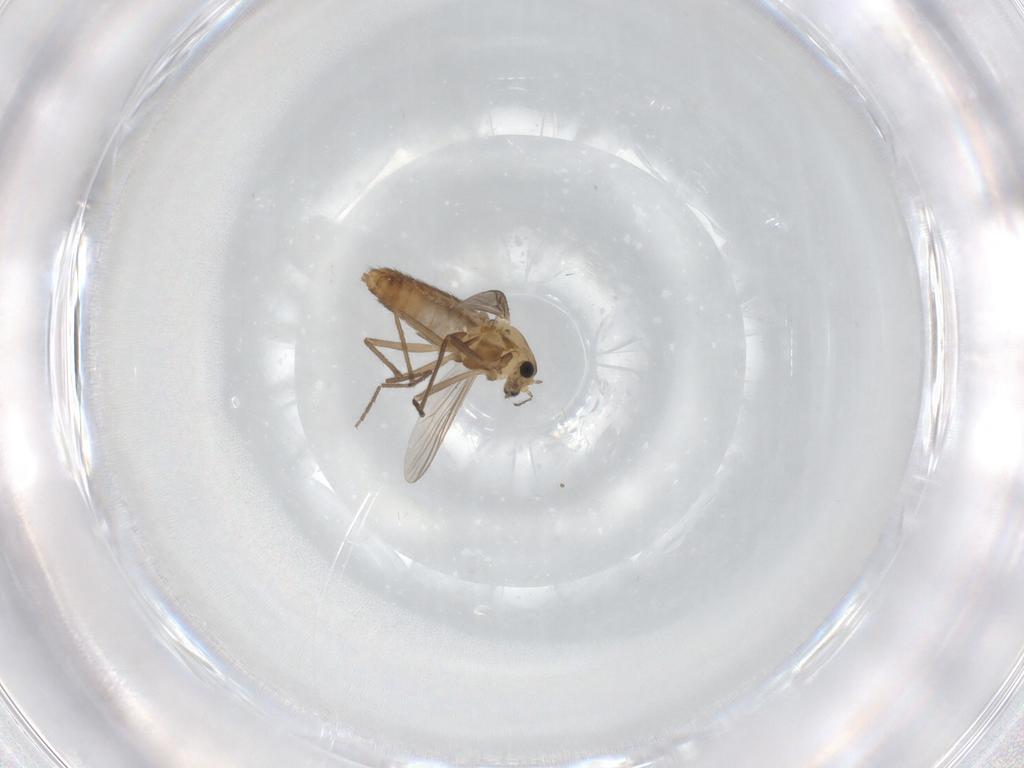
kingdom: Animalia
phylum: Arthropoda
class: Insecta
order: Diptera
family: Chironomidae
